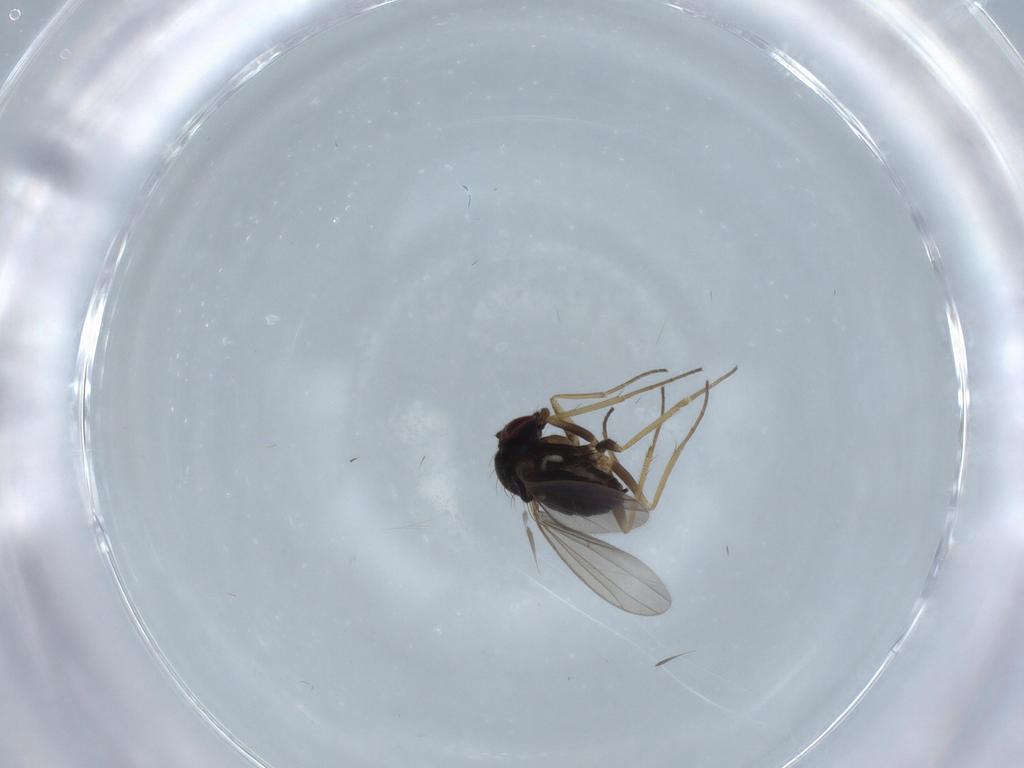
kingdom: Animalia
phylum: Arthropoda
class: Insecta
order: Diptera
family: Dolichopodidae
